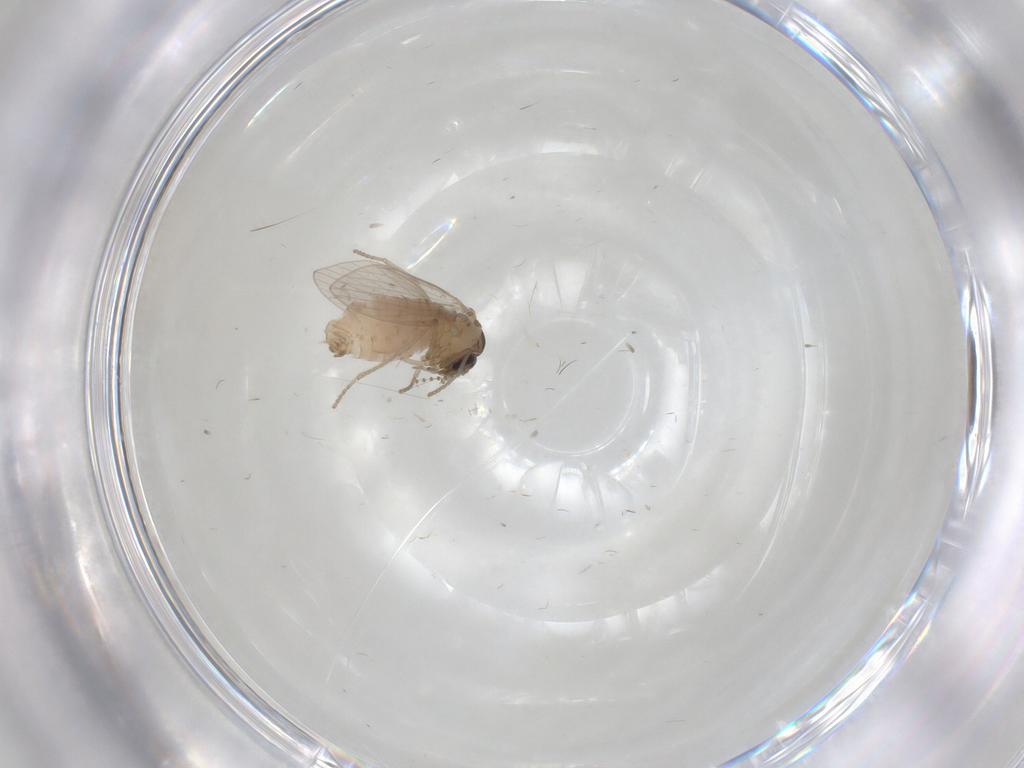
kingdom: Animalia
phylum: Arthropoda
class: Insecta
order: Diptera
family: Psychodidae
